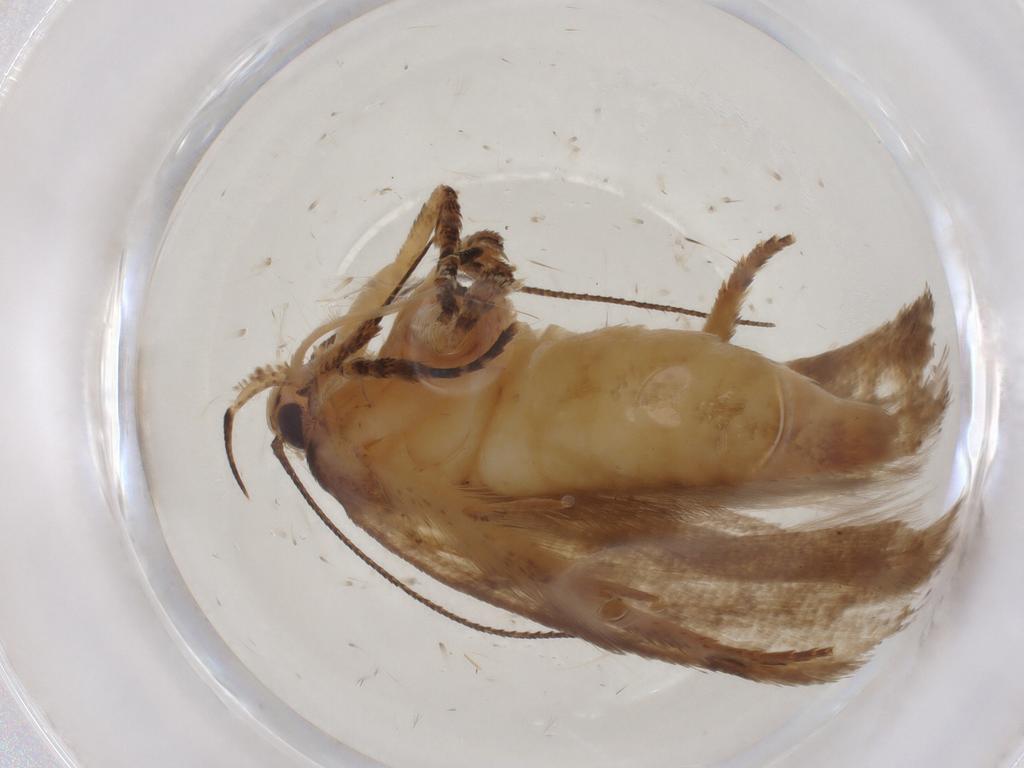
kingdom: Animalia
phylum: Arthropoda
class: Insecta
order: Lepidoptera
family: Gelechiidae
